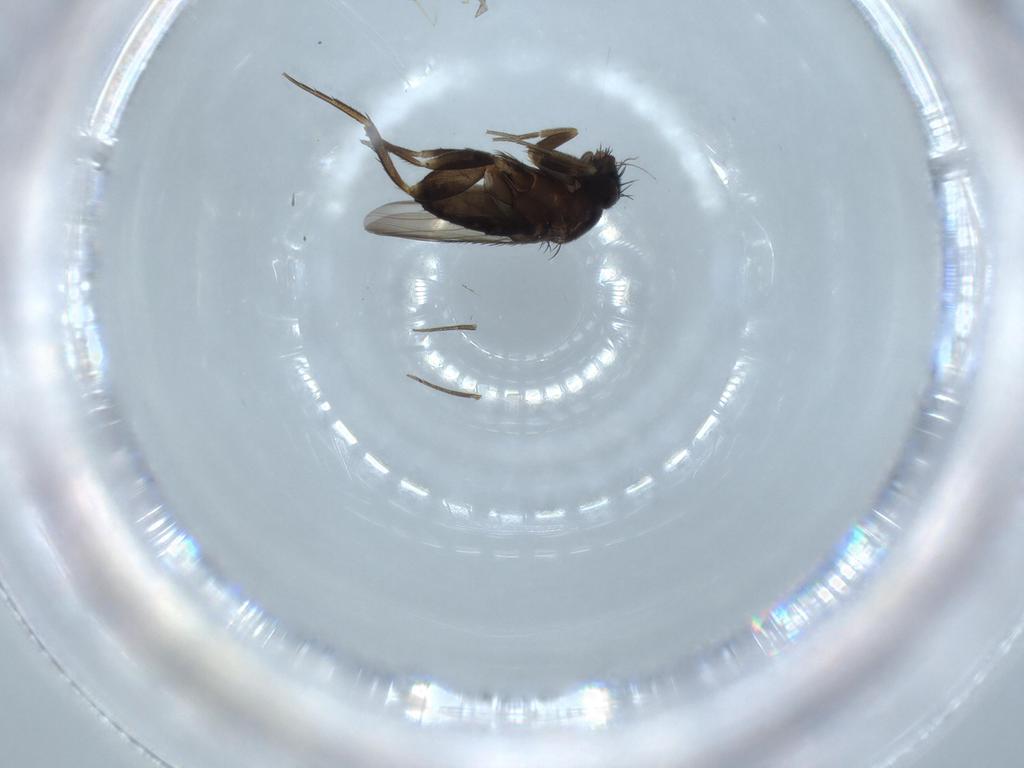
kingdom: Animalia
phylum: Arthropoda
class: Insecta
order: Diptera
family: Phoridae
